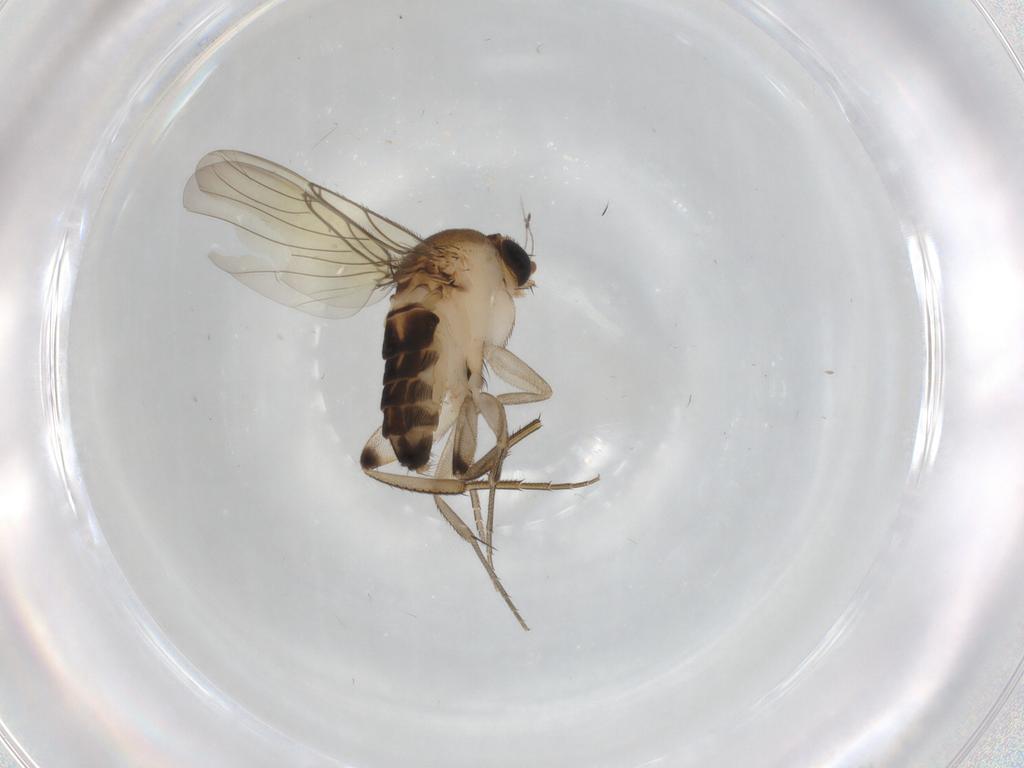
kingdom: Animalia
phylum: Arthropoda
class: Insecta
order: Diptera
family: Phoridae
